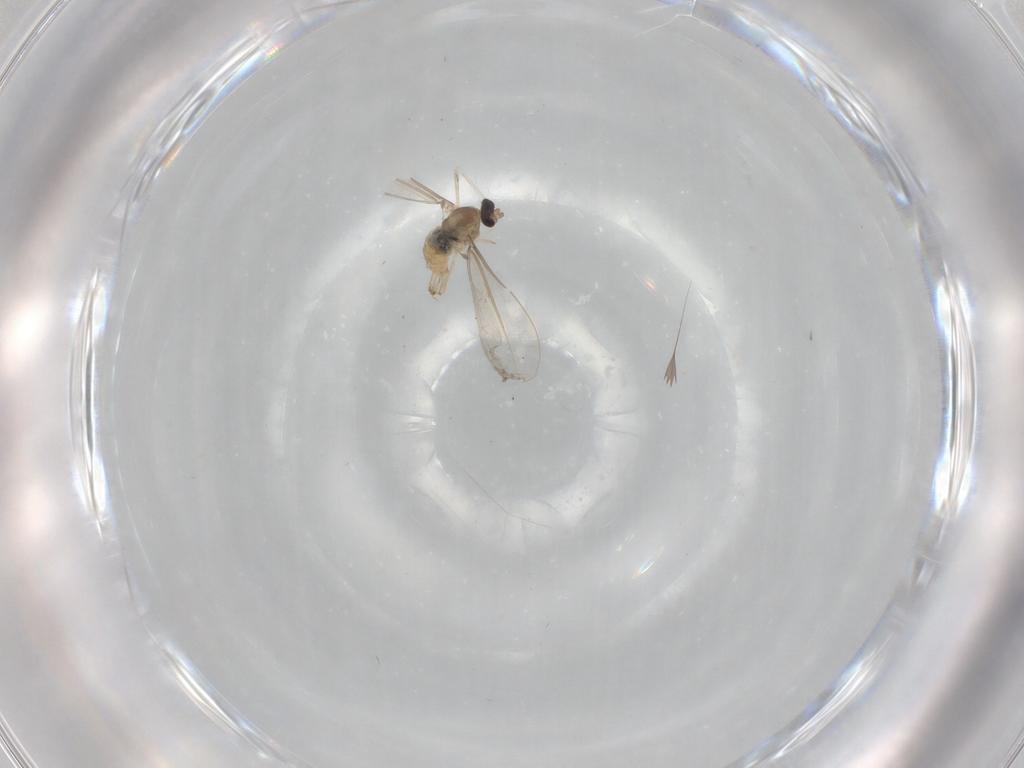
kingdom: Animalia
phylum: Arthropoda
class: Insecta
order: Diptera
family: Cecidomyiidae
